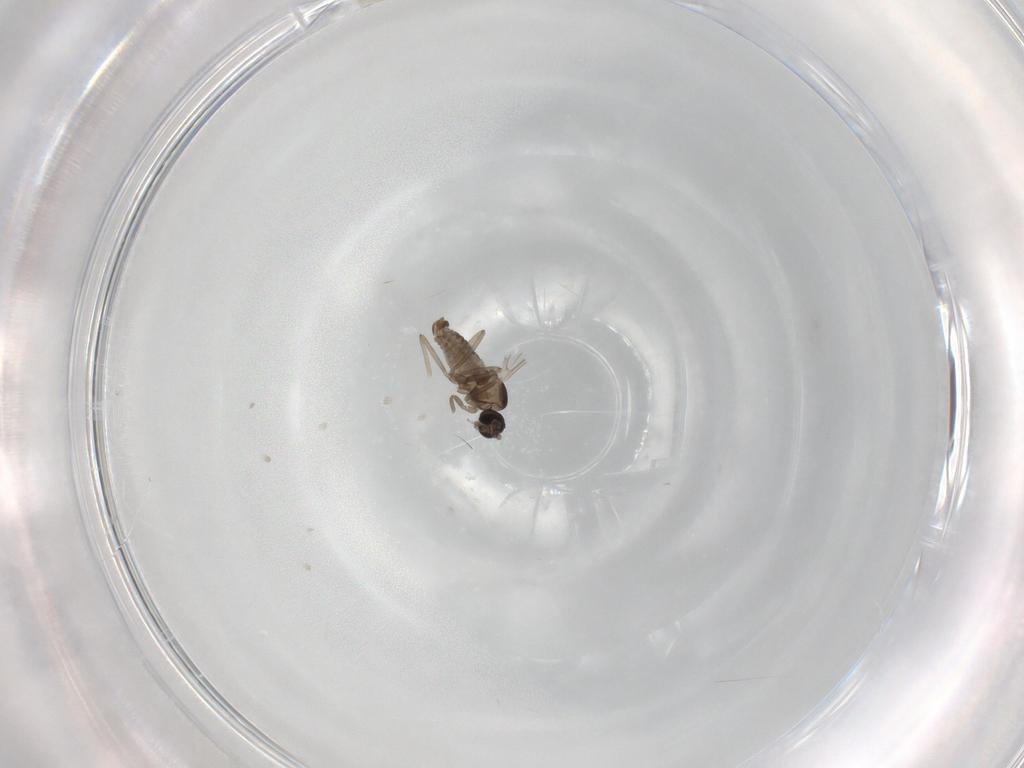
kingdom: Animalia
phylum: Arthropoda
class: Insecta
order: Diptera
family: Cecidomyiidae
